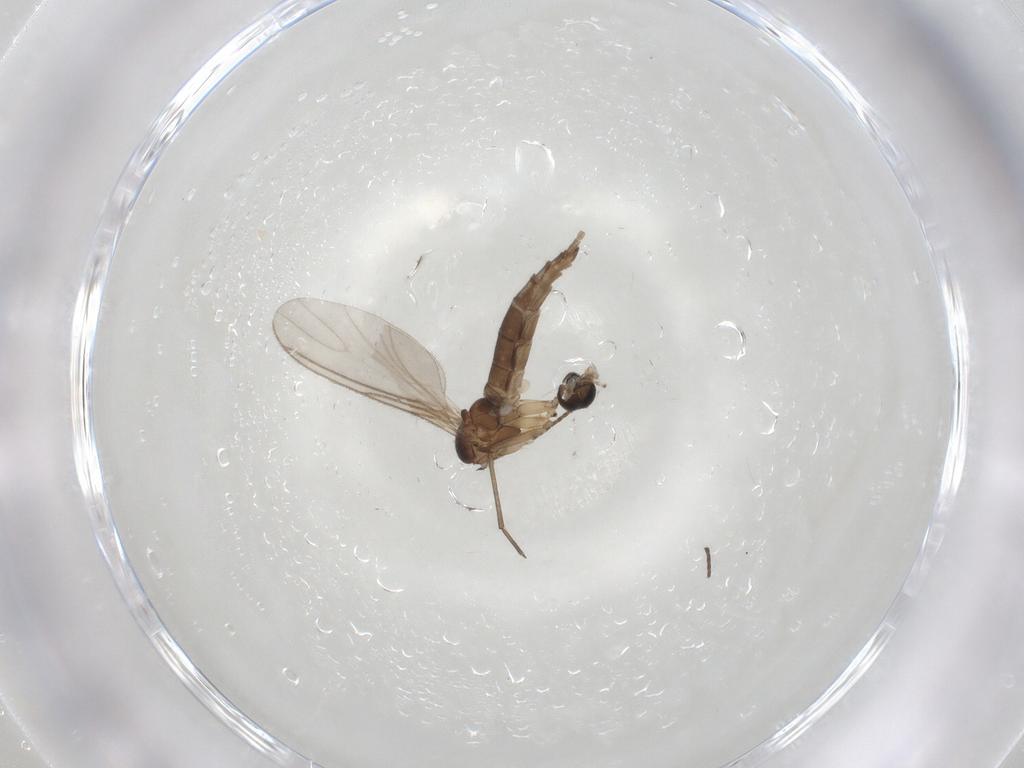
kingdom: Animalia
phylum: Arthropoda
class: Insecta
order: Diptera
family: Sciaridae
